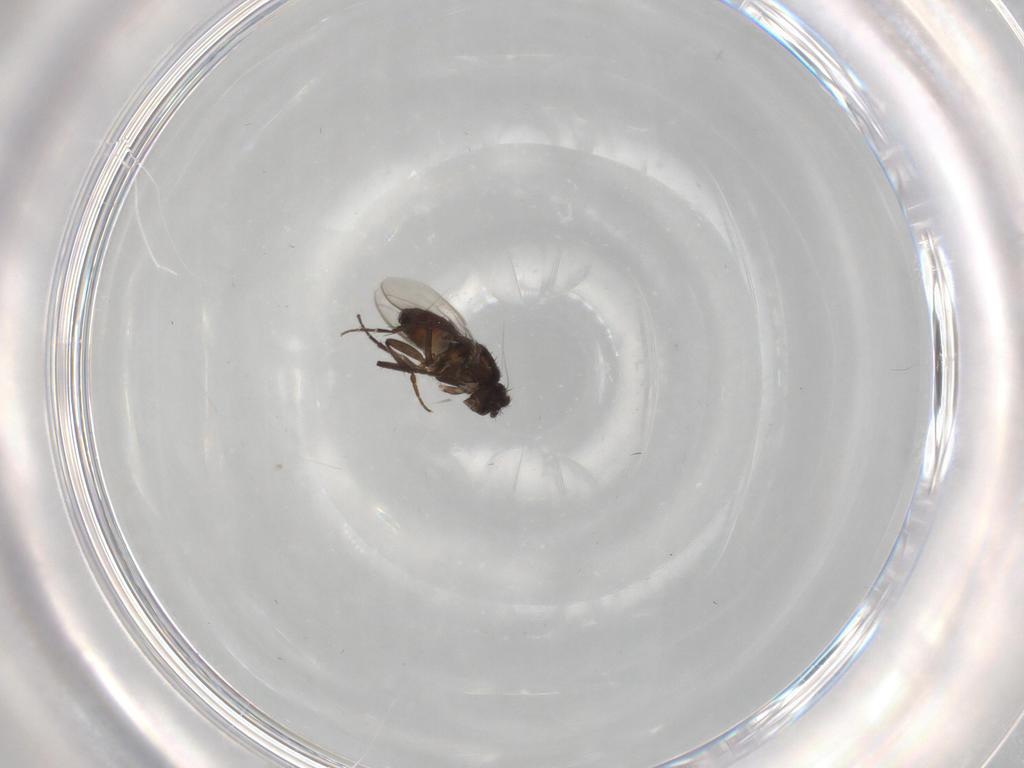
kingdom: Animalia
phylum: Arthropoda
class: Insecta
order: Diptera
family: Sphaeroceridae
